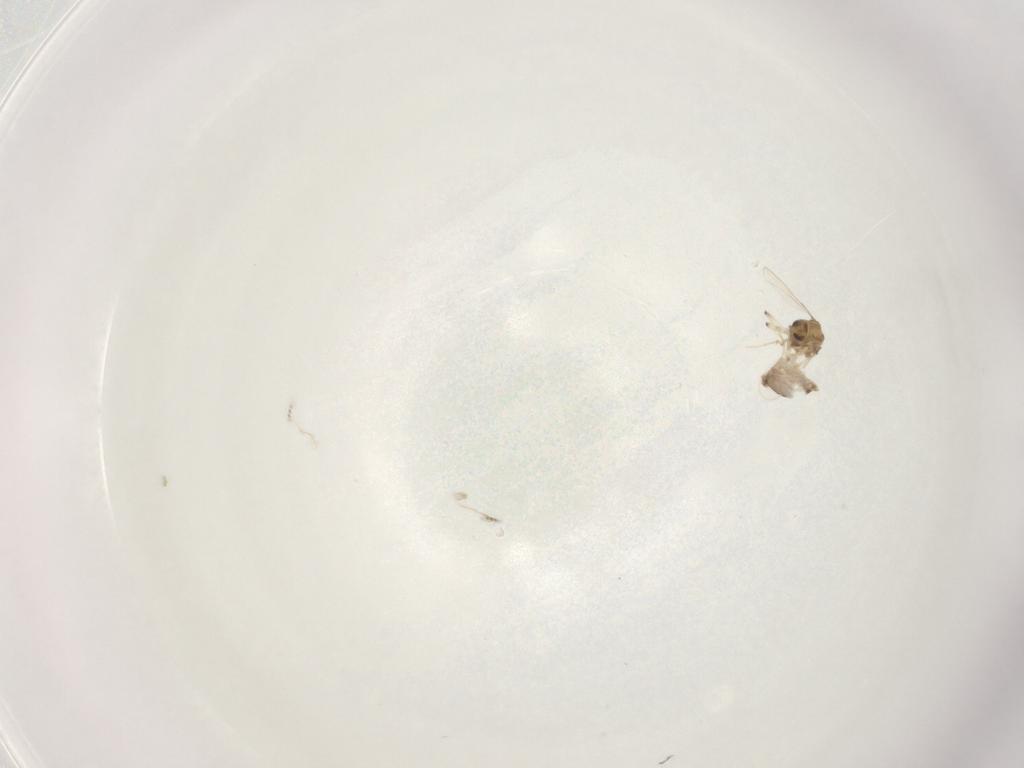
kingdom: Animalia
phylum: Arthropoda
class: Insecta
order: Diptera
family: Chironomidae
